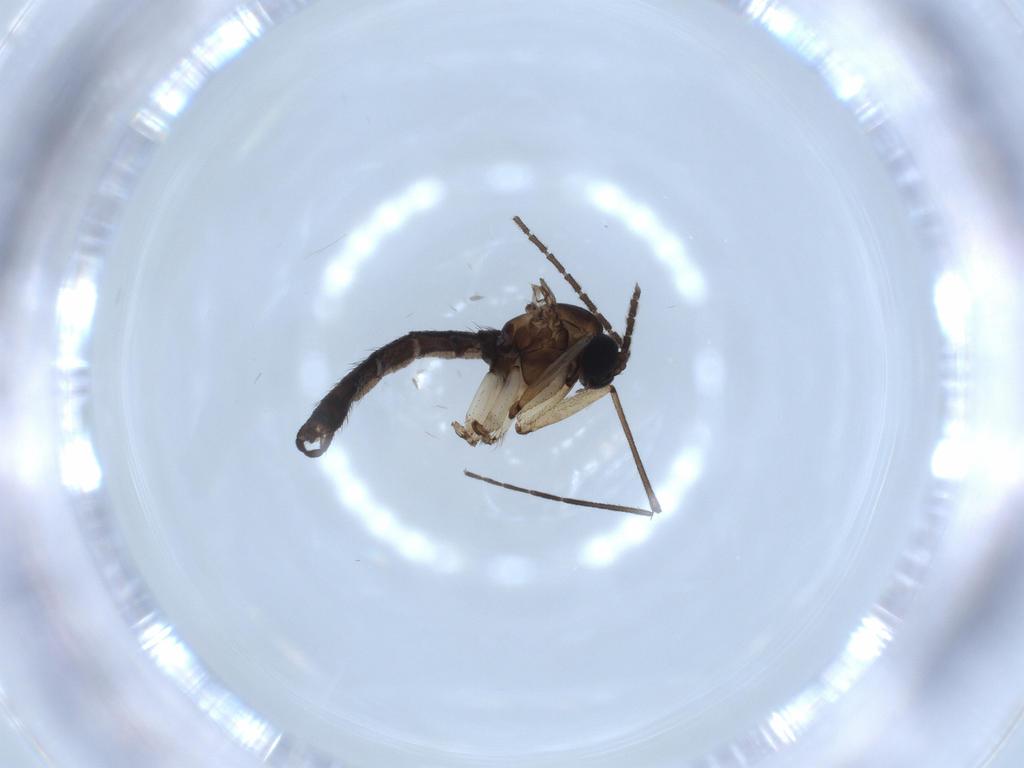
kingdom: Animalia
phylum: Arthropoda
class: Insecta
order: Diptera
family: Sciaridae
